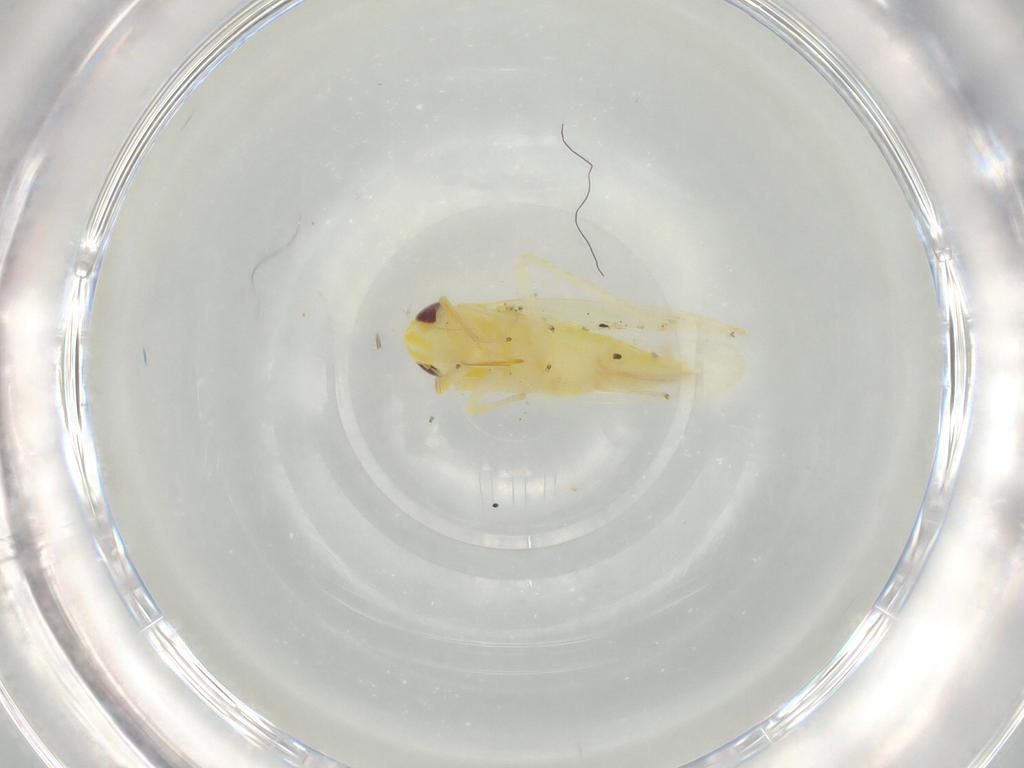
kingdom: Animalia
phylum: Arthropoda
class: Insecta
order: Hemiptera
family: Cicadellidae
